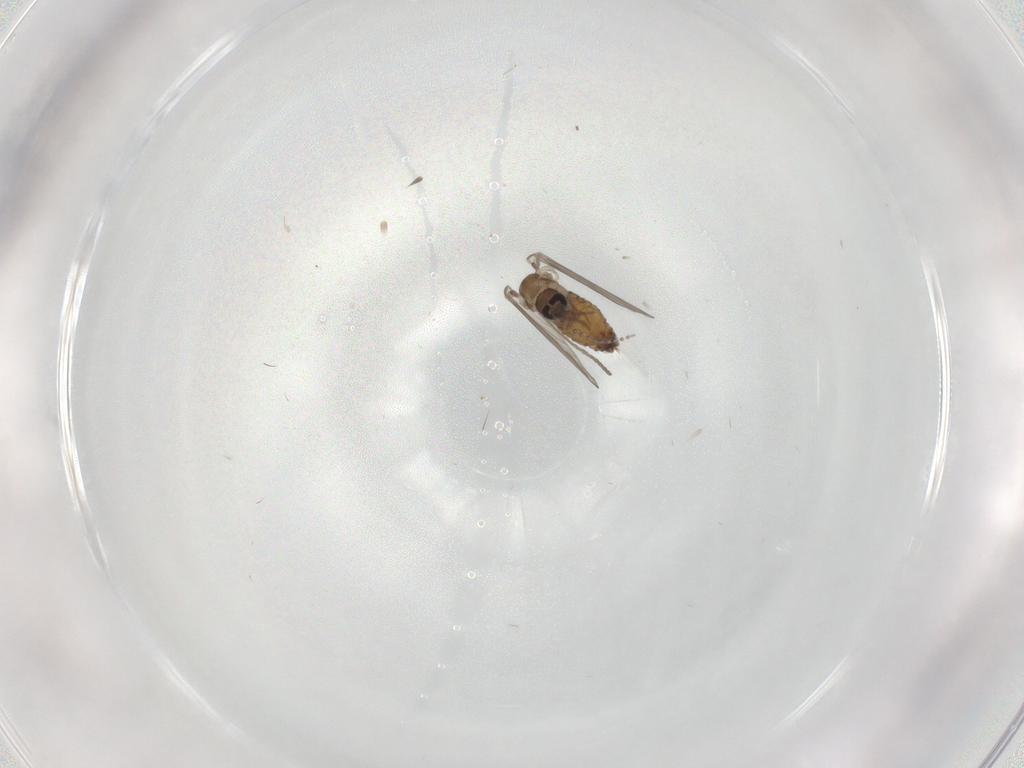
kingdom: Animalia
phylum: Arthropoda
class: Insecta
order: Diptera
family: Psychodidae
